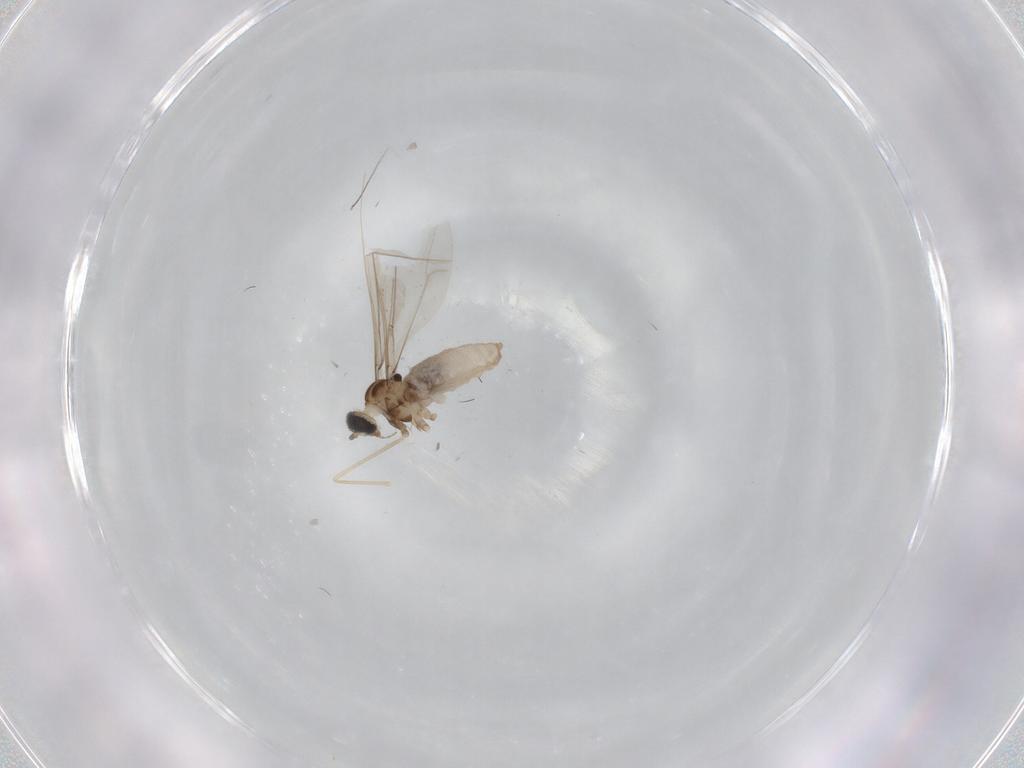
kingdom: Animalia
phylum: Arthropoda
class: Insecta
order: Diptera
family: Cecidomyiidae
